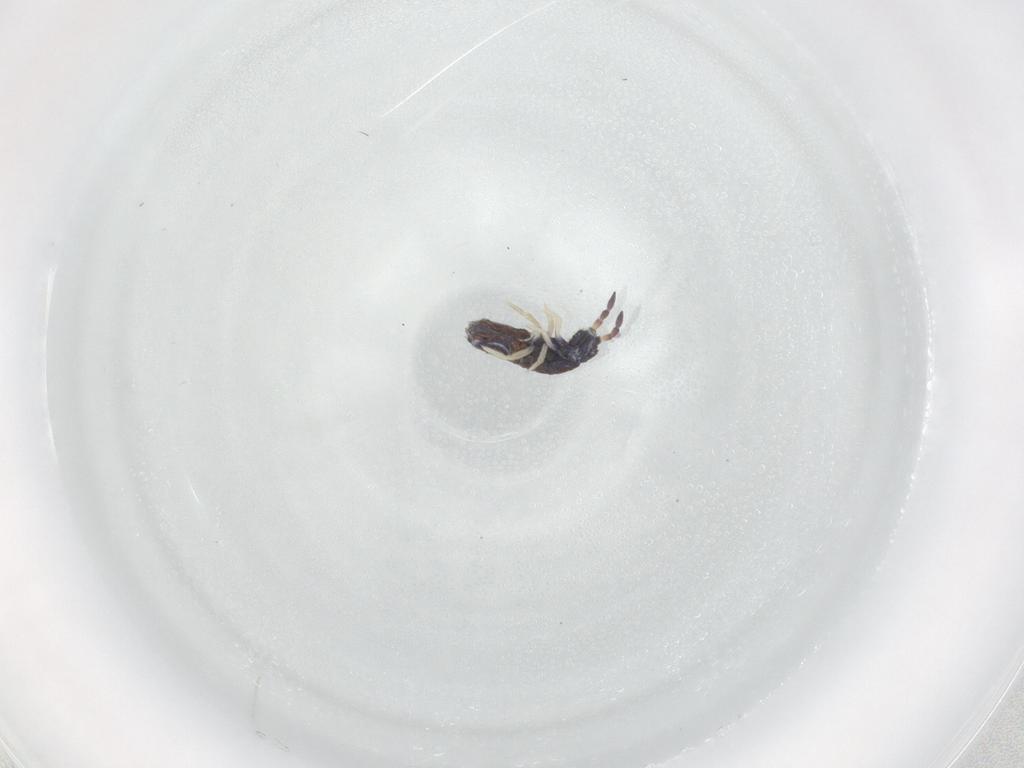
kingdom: Animalia
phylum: Arthropoda
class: Collembola
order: Entomobryomorpha
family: Entomobryidae
